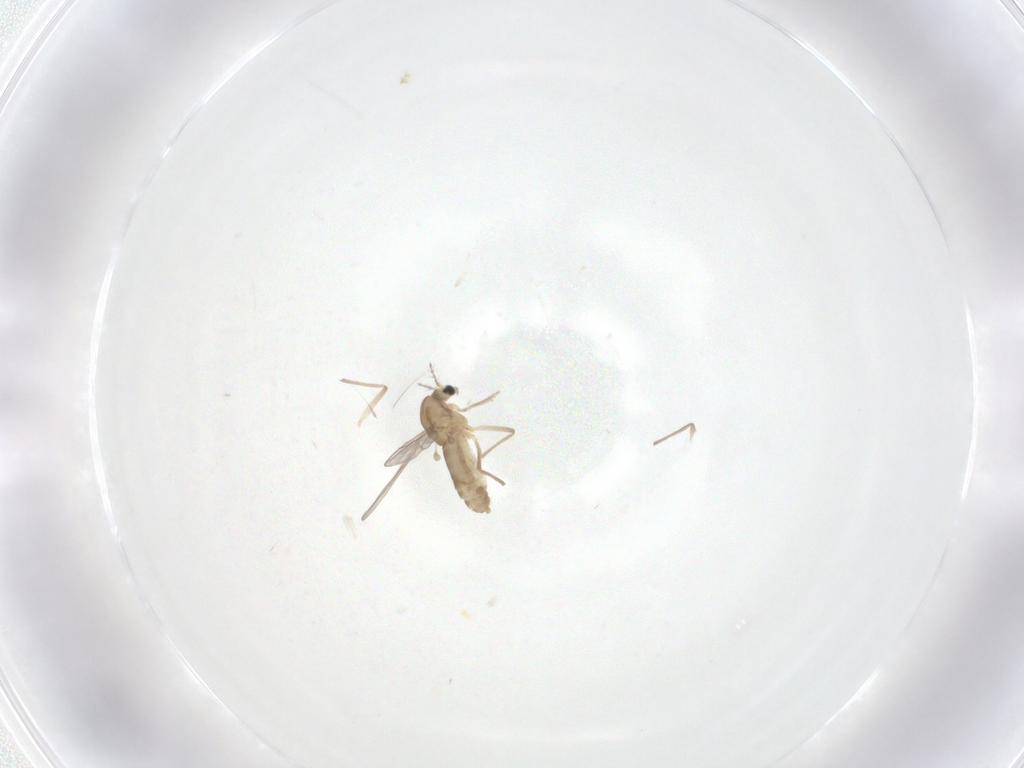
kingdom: Animalia
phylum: Arthropoda
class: Insecta
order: Diptera
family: Chironomidae
